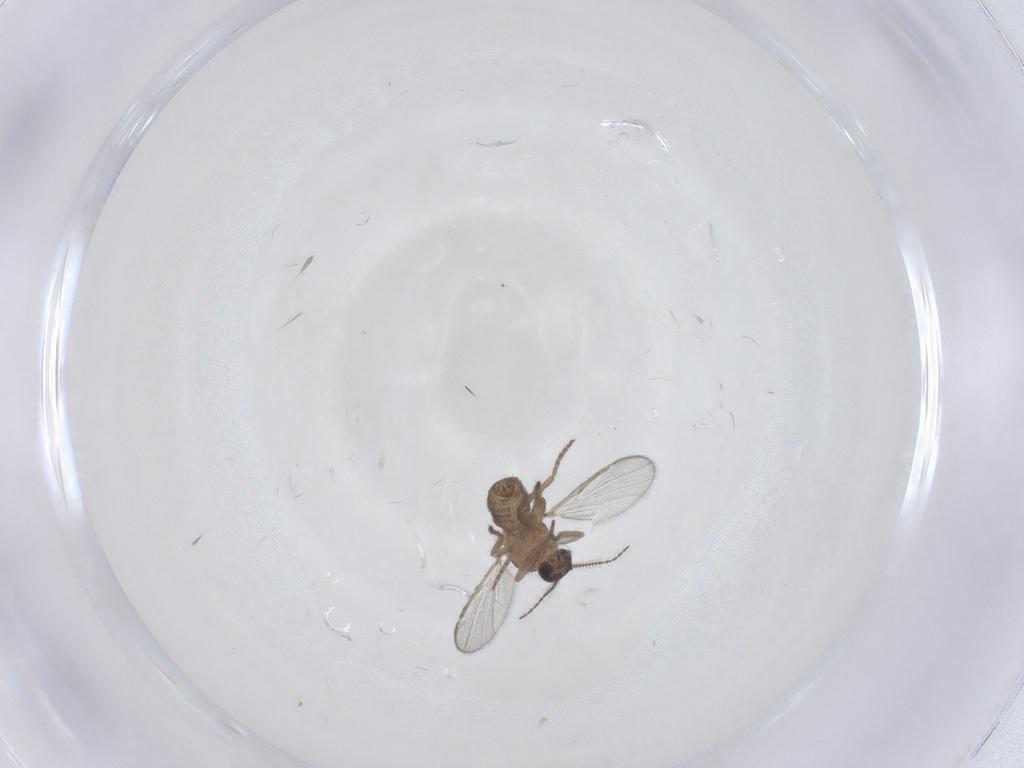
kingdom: Animalia
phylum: Arthropoda
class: Insecta
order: Diptera
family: Ceratopogonidae
